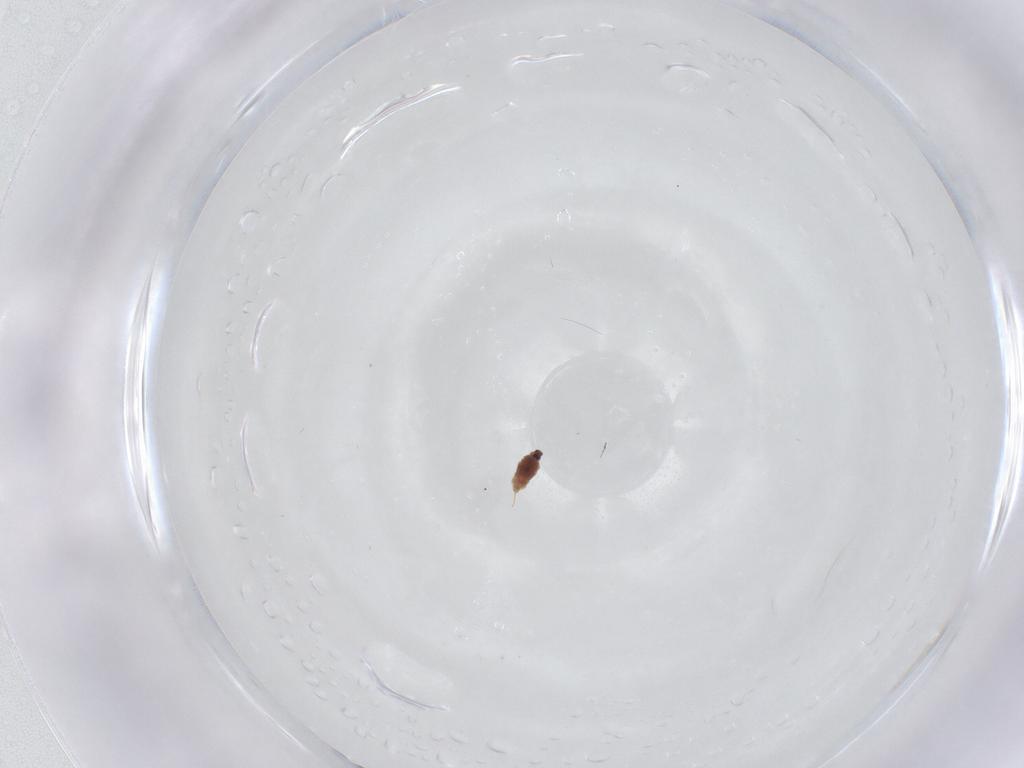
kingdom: Animalia
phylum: Arthropoda
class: Insecta
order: Hemiptera
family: Diaspididae
